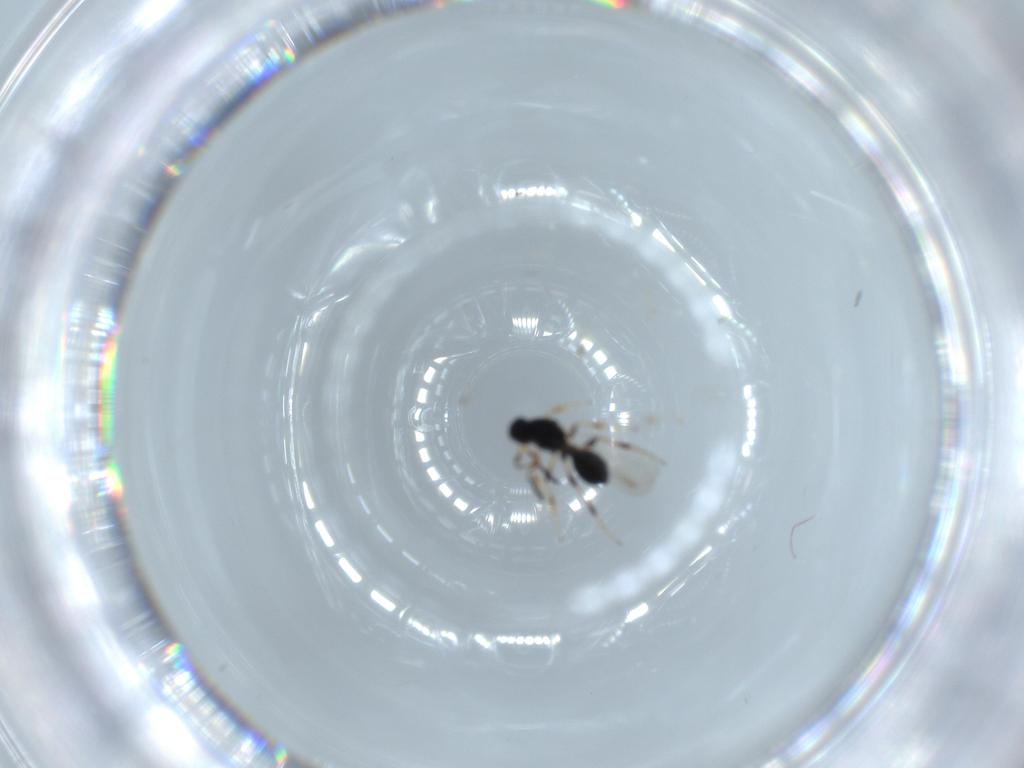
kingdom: Animalia
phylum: Arthropoda
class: Insecta
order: Hymenoptera
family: Platygastridae
